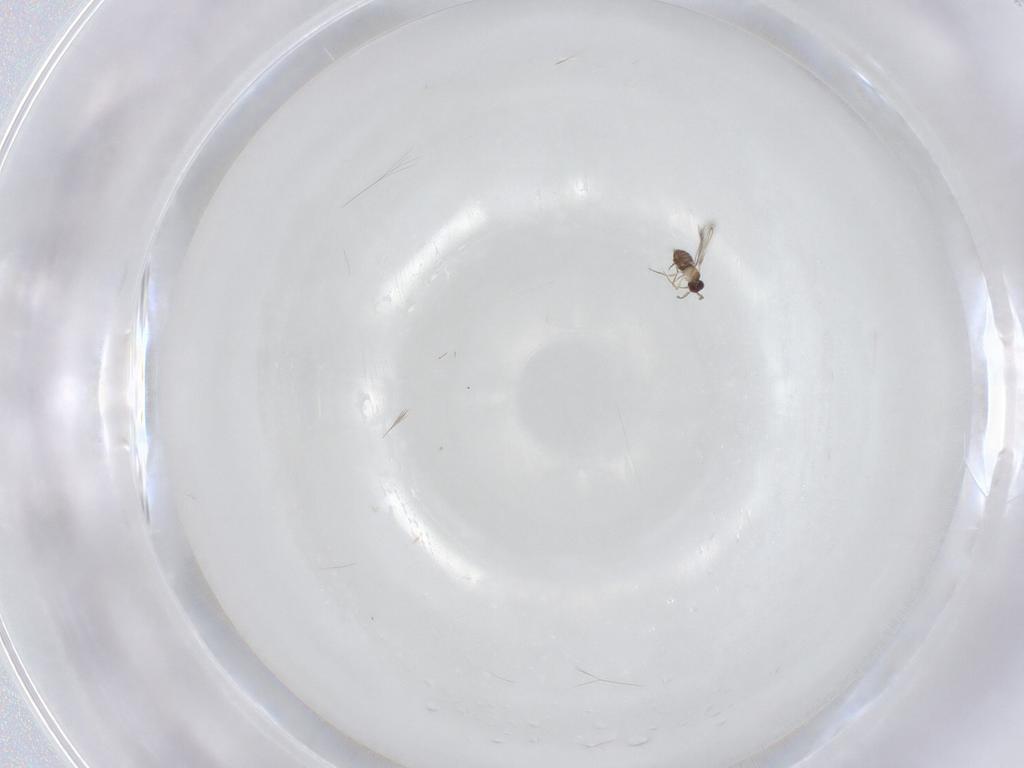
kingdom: Animalia
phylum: Arthropoda
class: Insecta
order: Hymenoptera
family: Mymaridae
